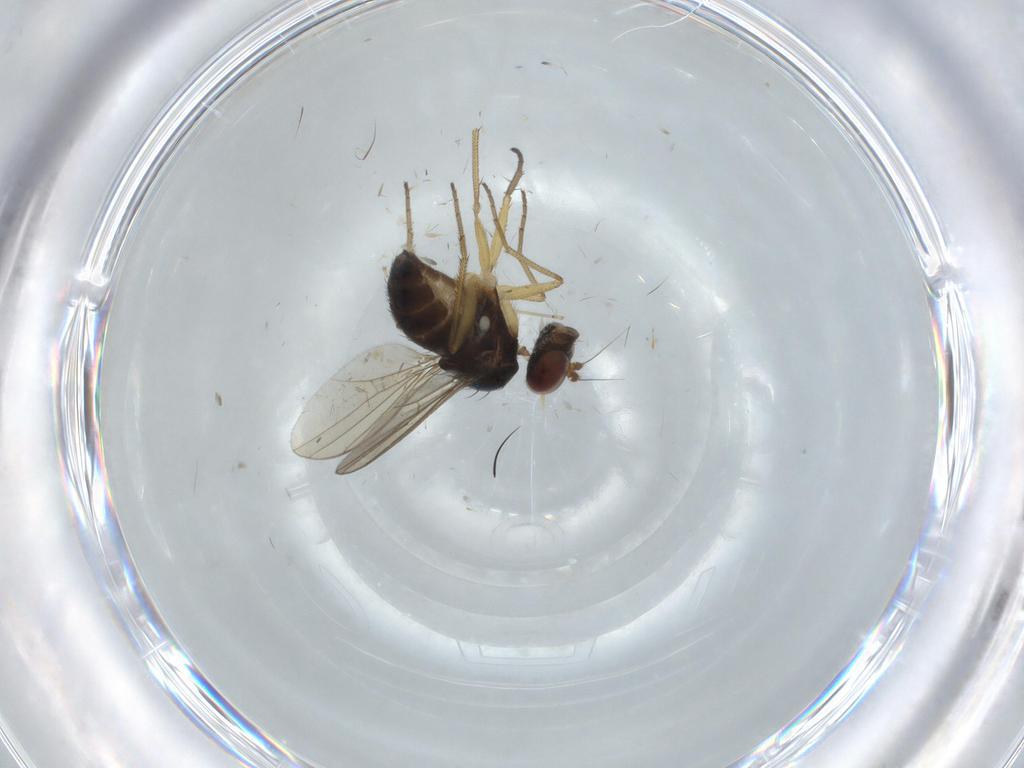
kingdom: Animalia
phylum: Arthropoda
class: Insecta
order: Diptera
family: Dolichopodidae
